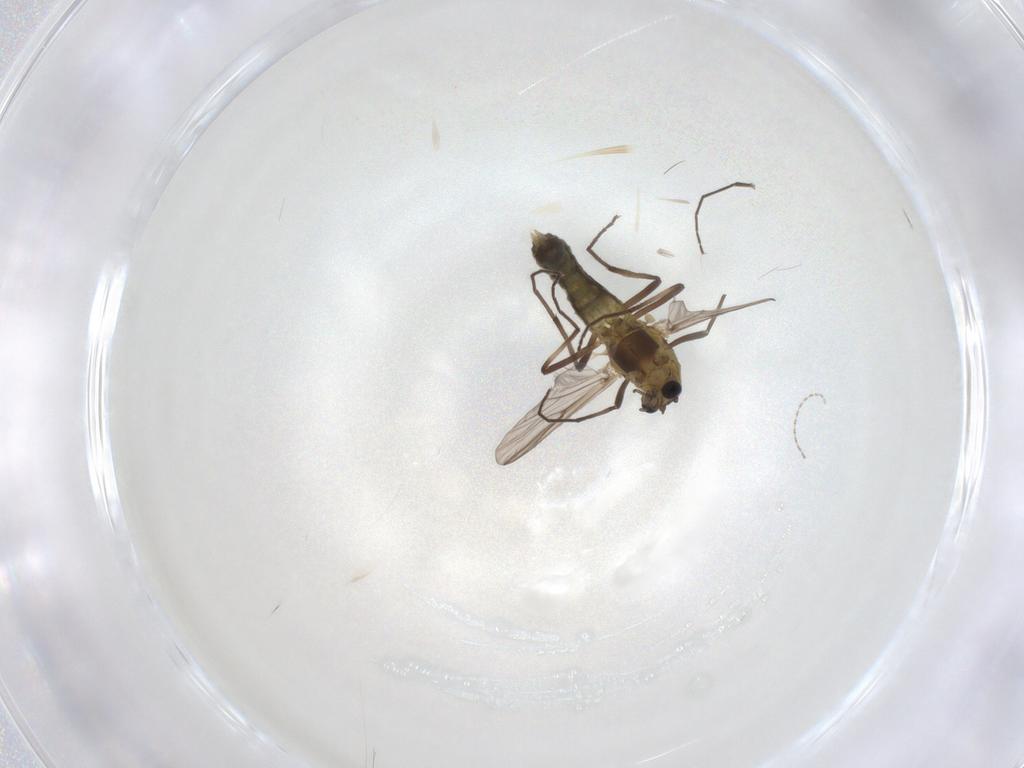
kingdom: Animalia
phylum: Arthropoda
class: Insecta
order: Diptera
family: Chironomidae
